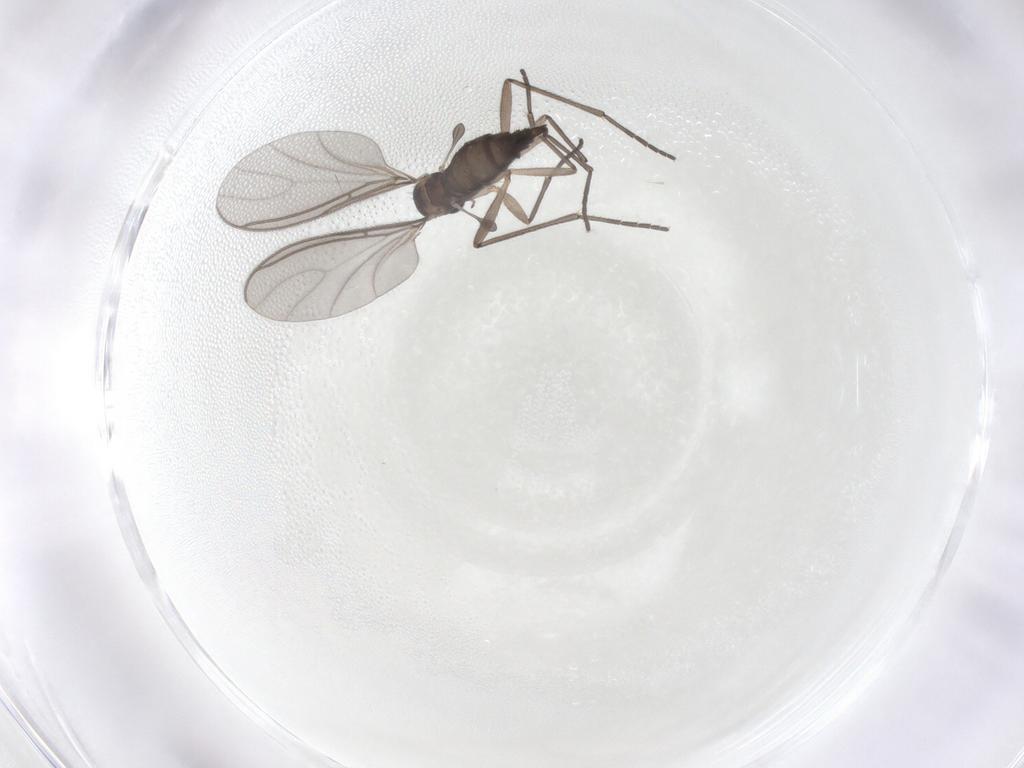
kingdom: Animalia
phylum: Arthropoda
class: Insecta
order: Diptera
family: Sciaridae
